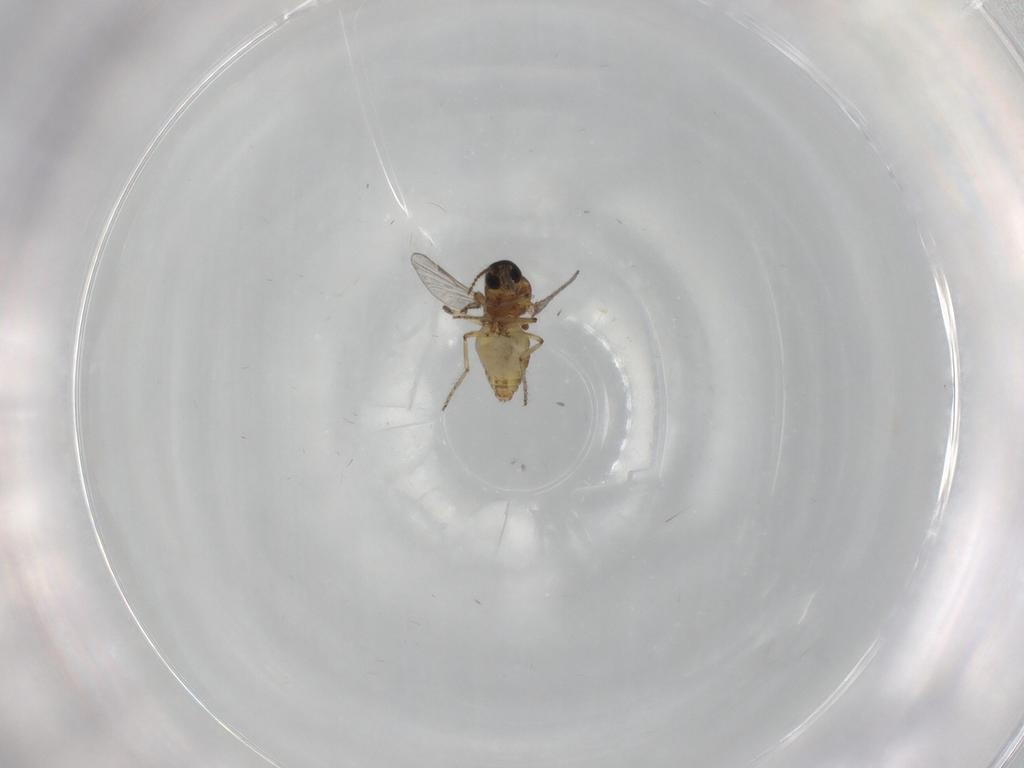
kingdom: Animalia
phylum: Arthropoda
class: Insecta
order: Diptera
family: Ceratopogonidae
